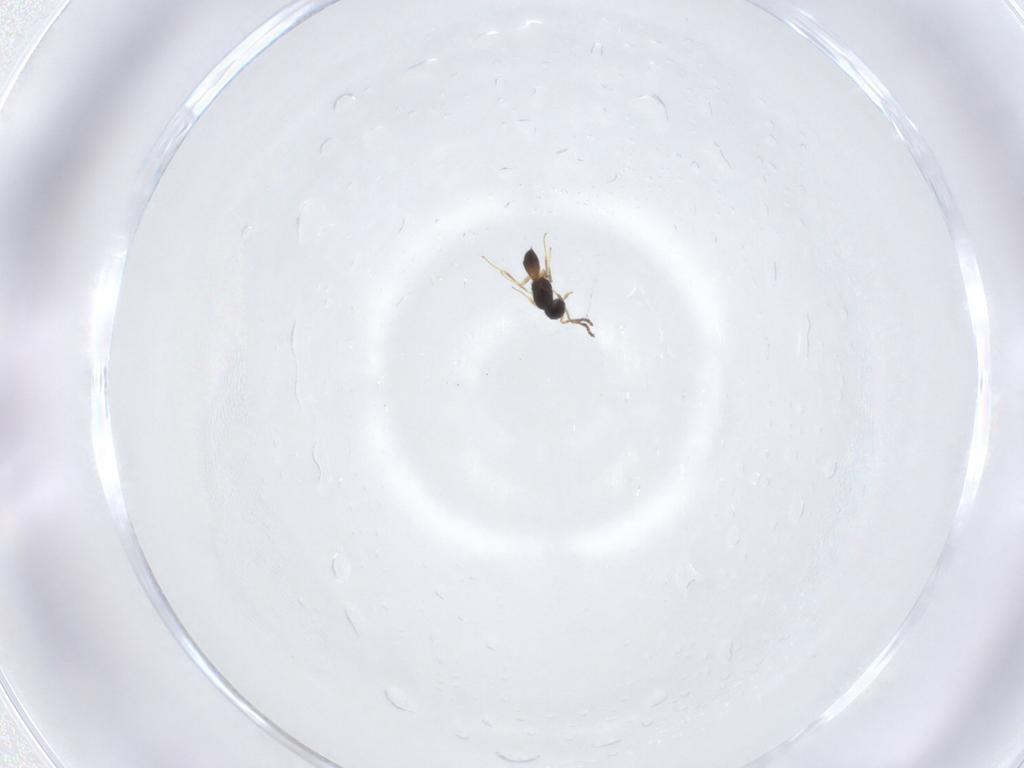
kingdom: Animalia
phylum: Arthropoda
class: Insecta
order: Hymenoptera
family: Scelionidae
